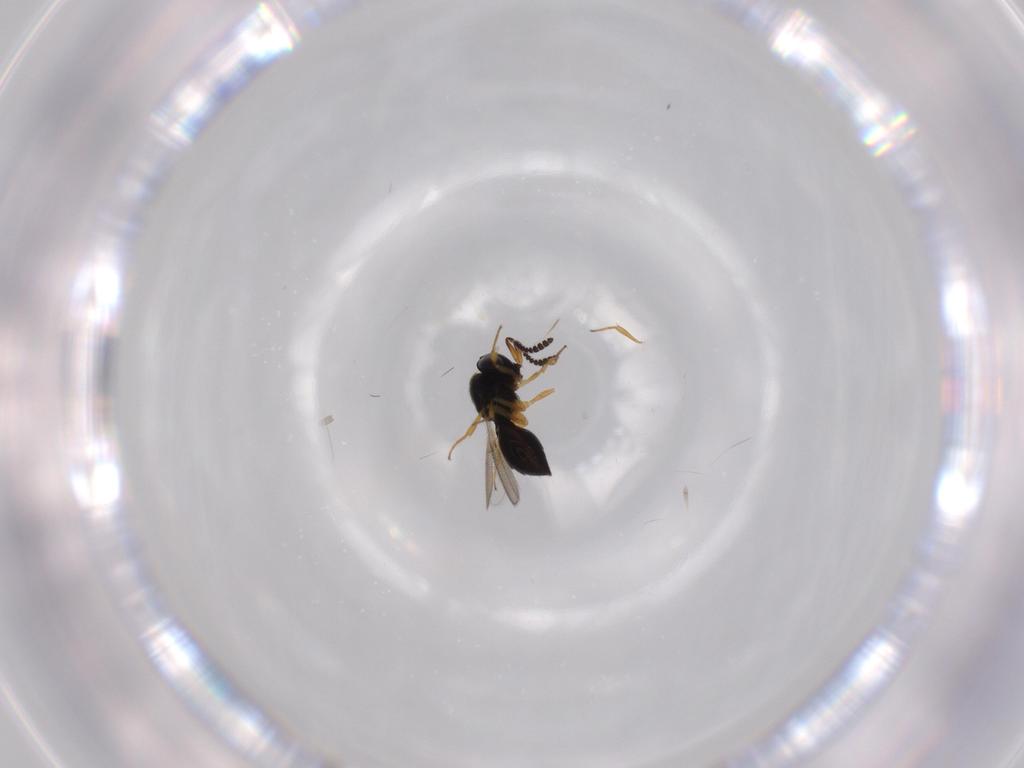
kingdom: Animalia
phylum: Arthropoda
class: Insecta
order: Hymenoptera
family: Scelionidae
